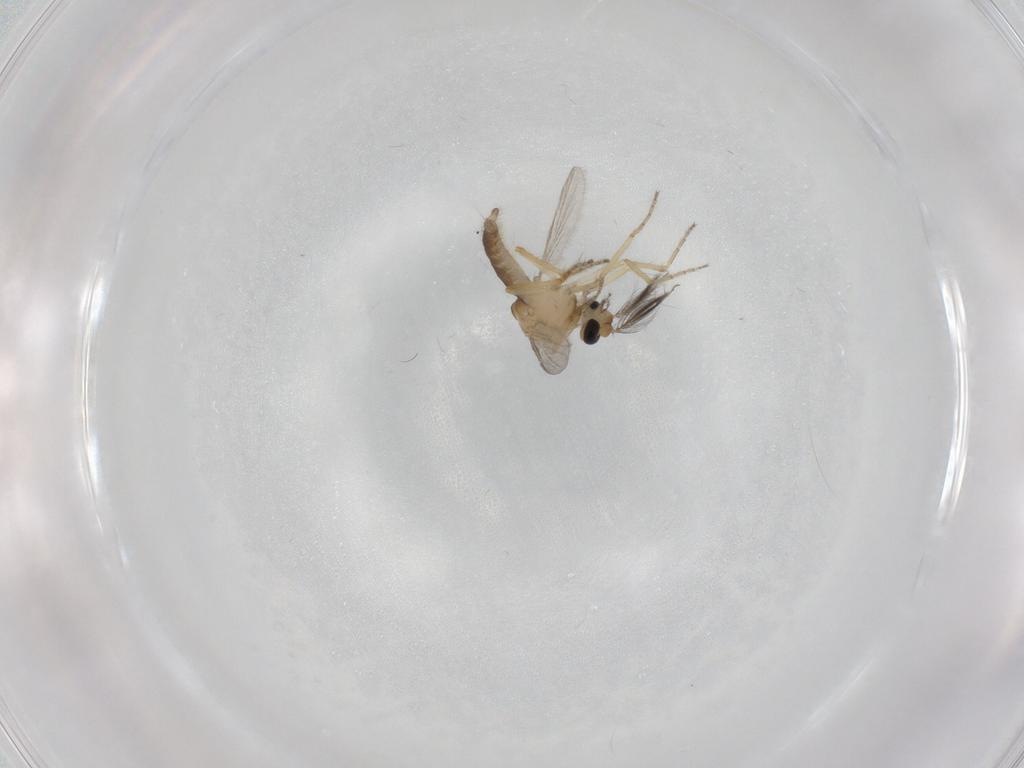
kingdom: Animalia
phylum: Arthropoda
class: Insecta
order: Diptera
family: Ceratopogonidae
